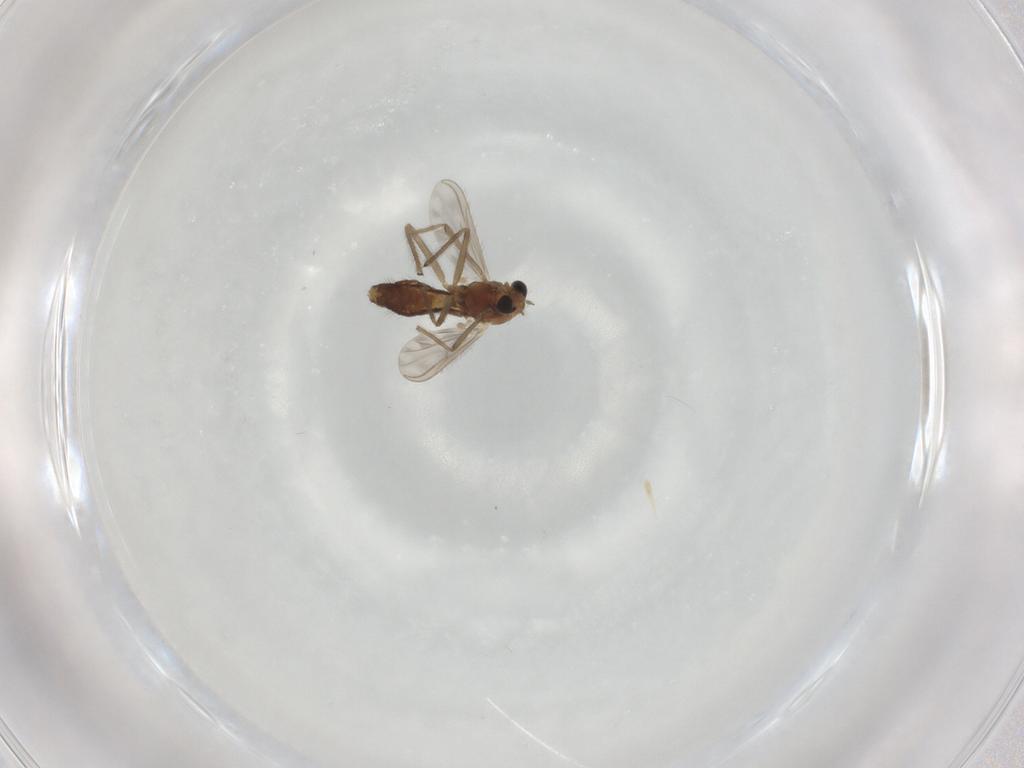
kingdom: Animalia
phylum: Arthropoda
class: Insecta
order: Diptera
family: Chironomidae
